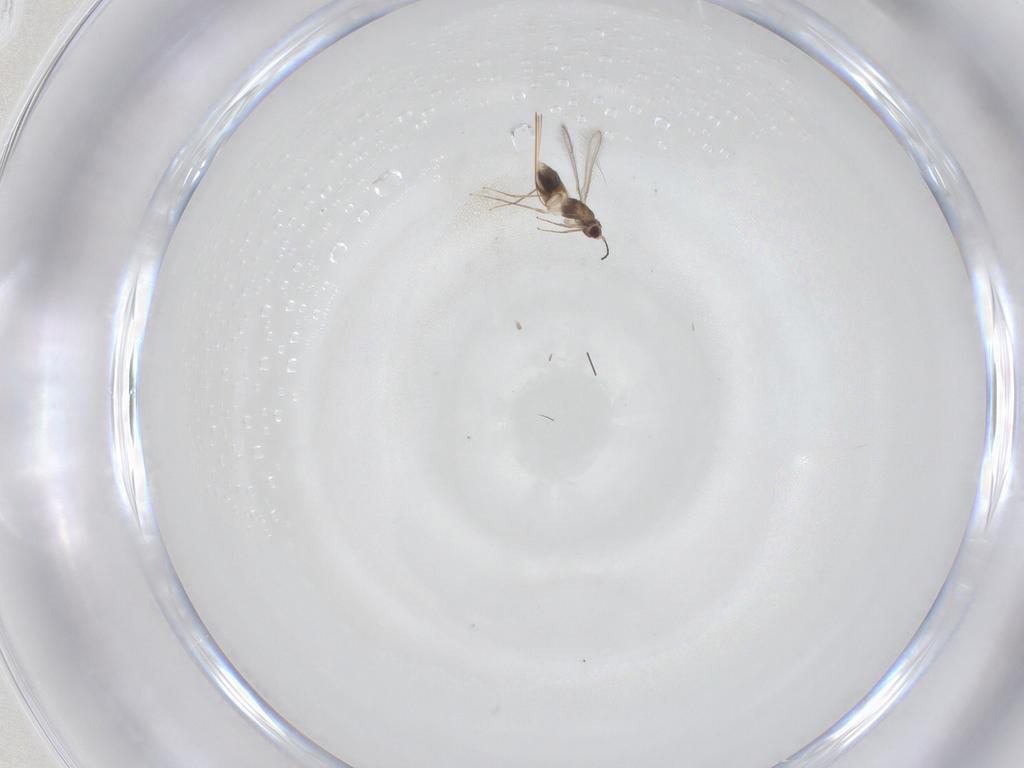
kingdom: Animalia
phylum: Arthropoda
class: Insecta
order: Hymenoptera
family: Mymaridae
